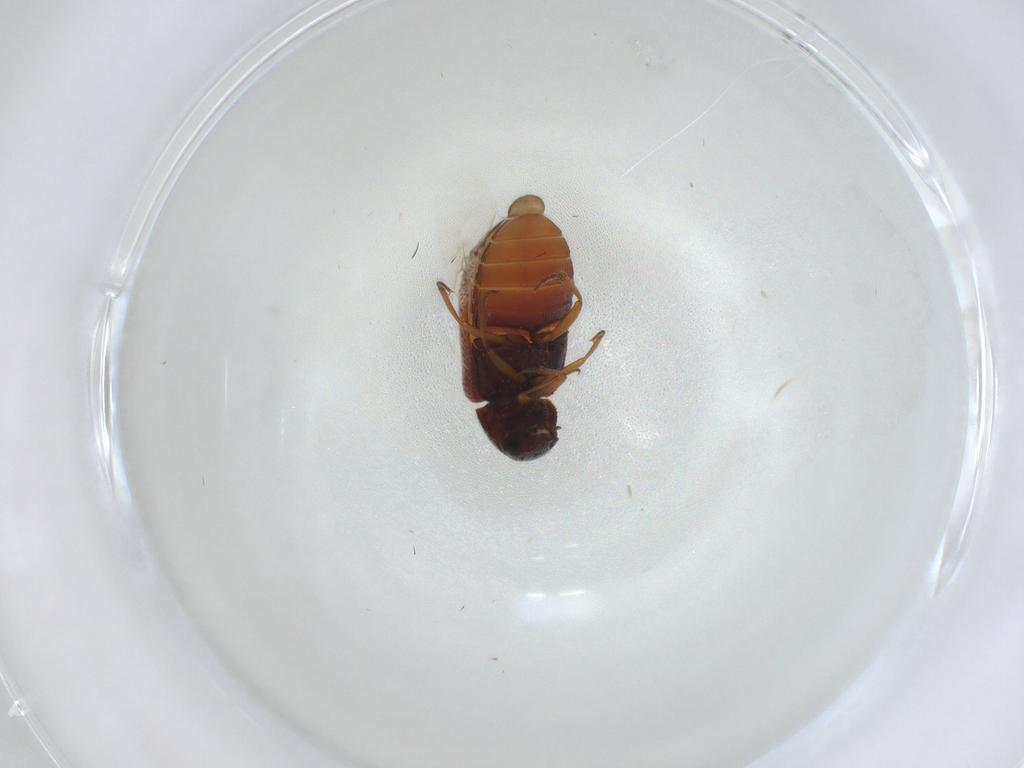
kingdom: Animalia
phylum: Arthropoda
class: Insecta
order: Coleoptera
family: Rhadalidae
